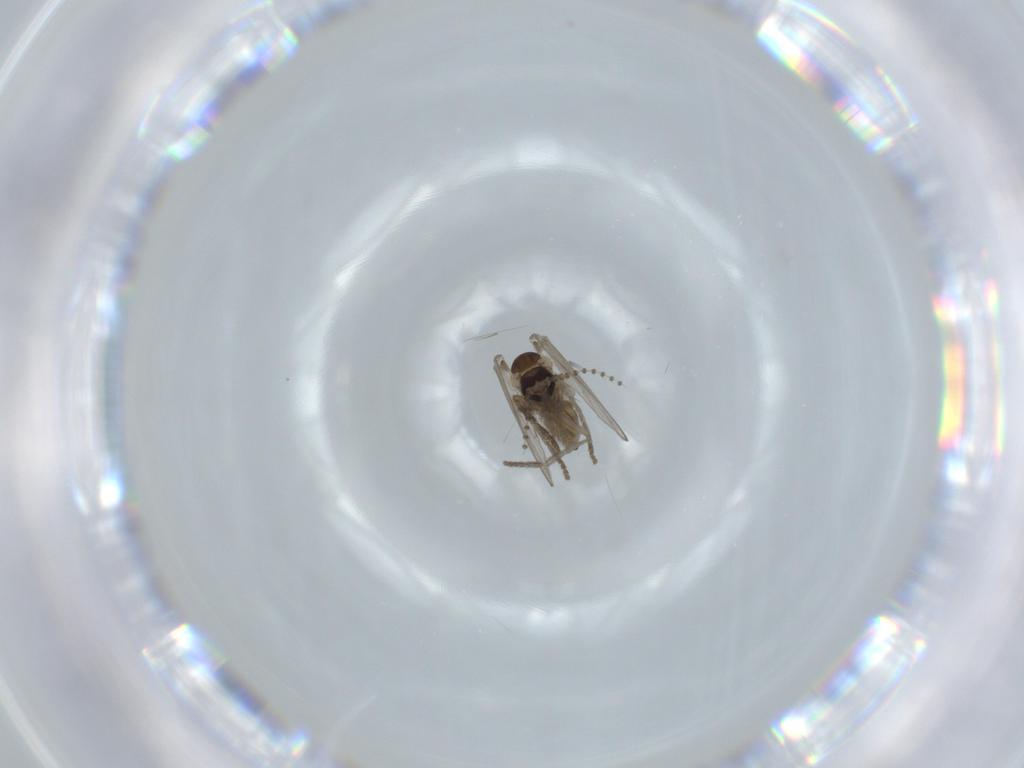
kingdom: Animalia
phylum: Arthropoda
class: Insecta
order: Diptera
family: Psychodidae
